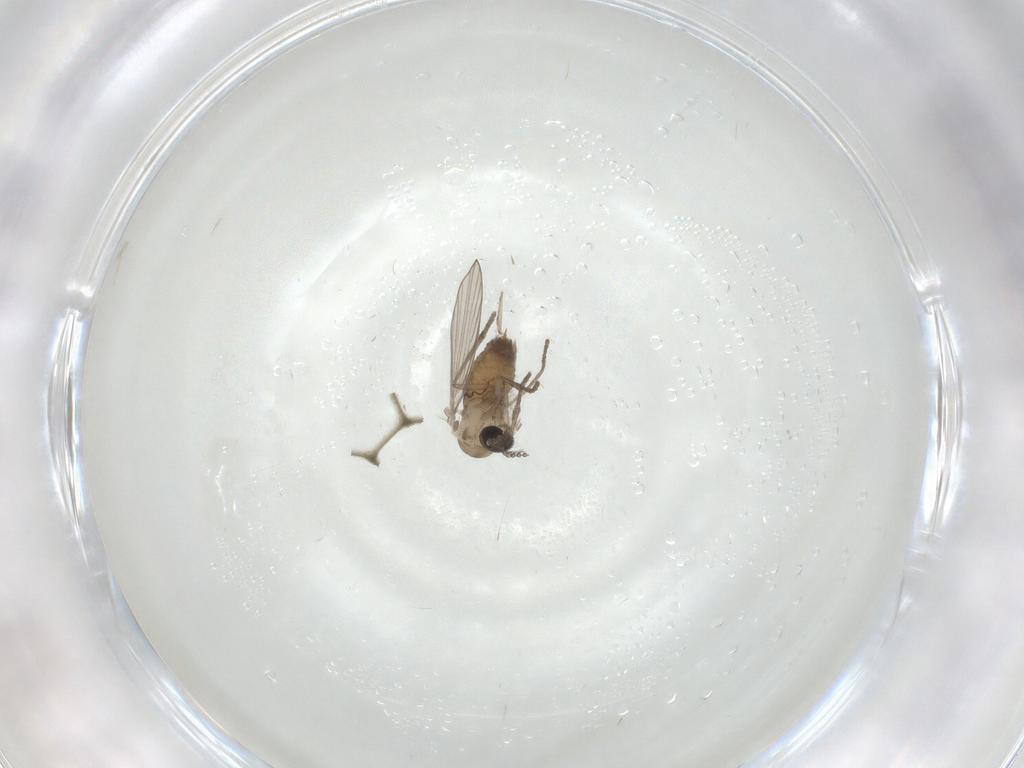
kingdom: Animalia
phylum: Arthropoda
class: Insecta
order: Diptera
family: Psychodidae
